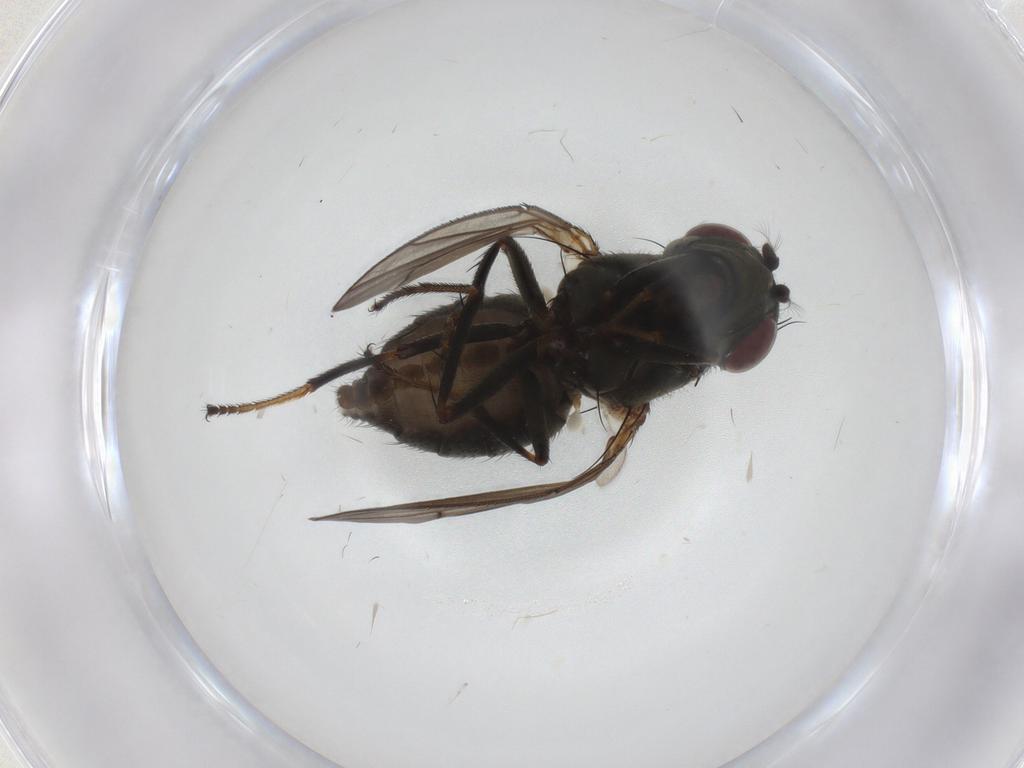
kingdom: Animalia
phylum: Arthropoda
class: Insecta
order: Diptera
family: Ephydridae
